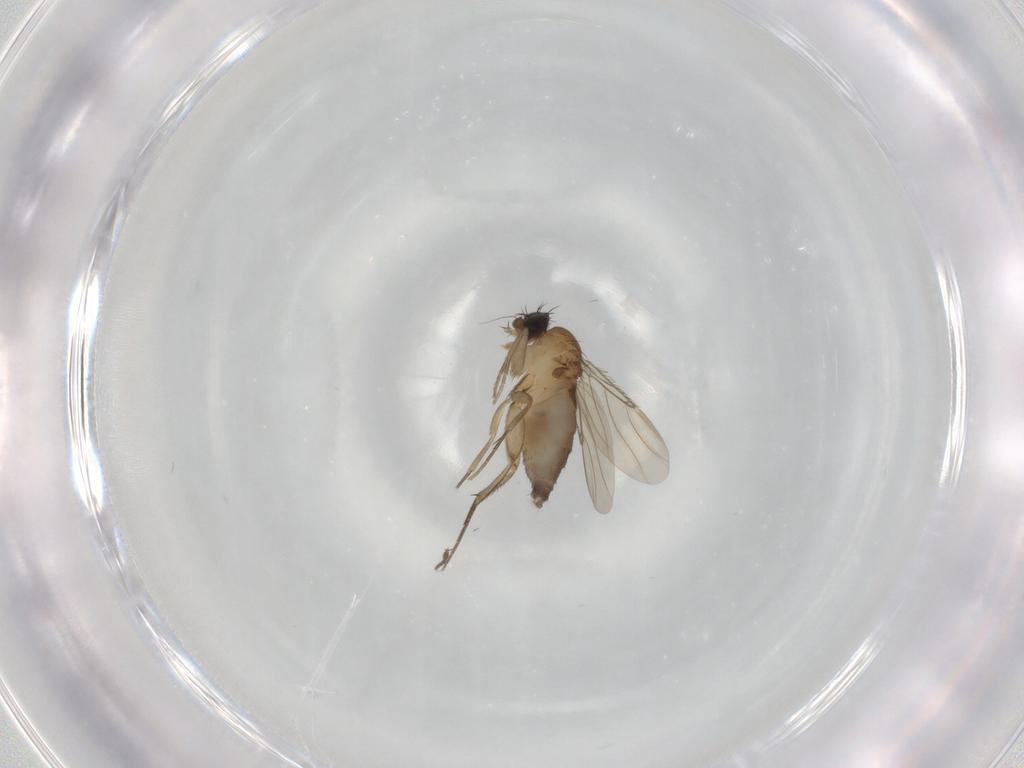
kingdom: Animalia
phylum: Arthropoda
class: Insecta
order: Diptera
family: Phoridae
